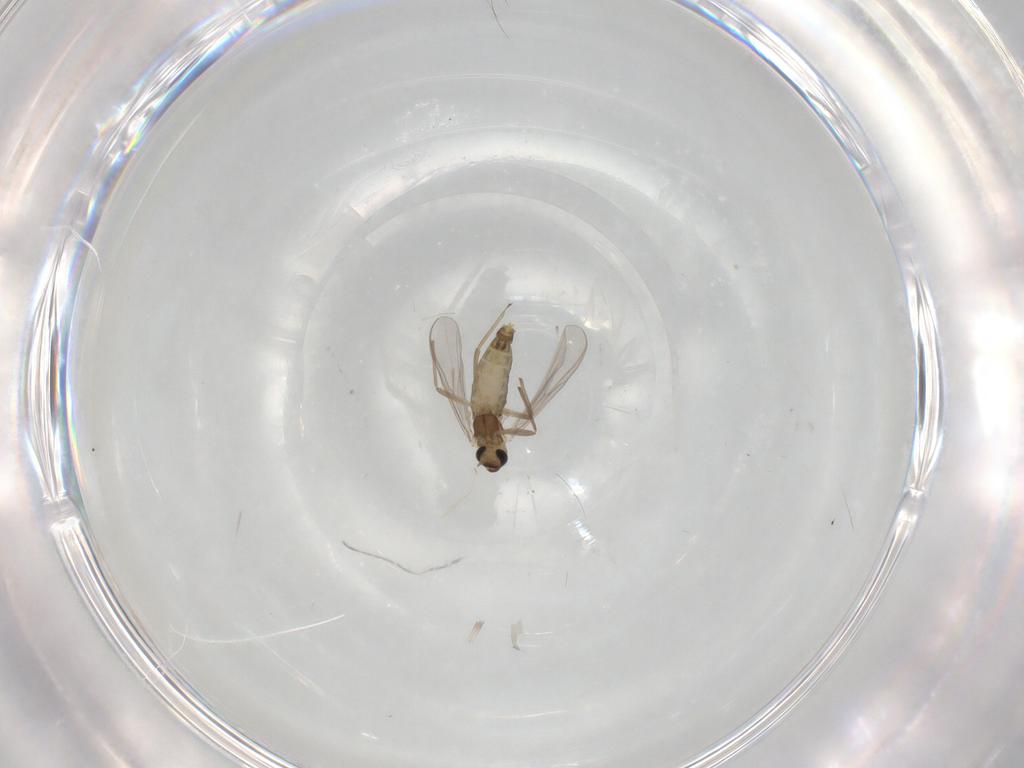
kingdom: Animalia
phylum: Arthropoda
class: Insecta
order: Diptera
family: Chironomidae
